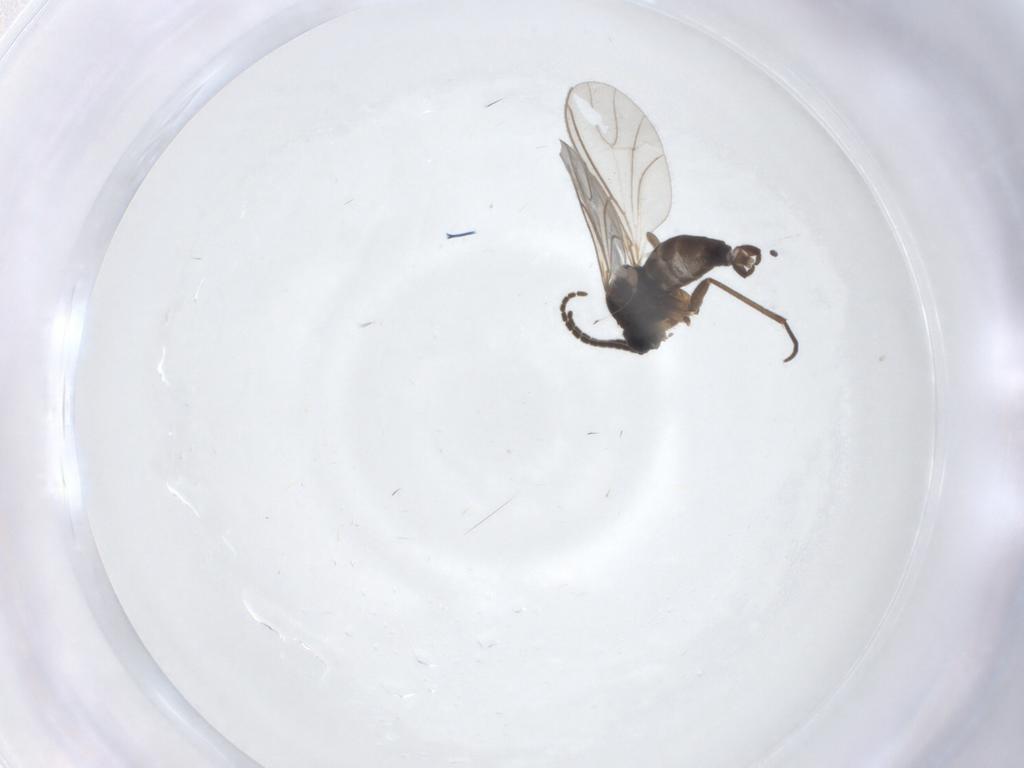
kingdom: Animalia
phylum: Arthropoda
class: Insecta
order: Diptera
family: Sciaridae
